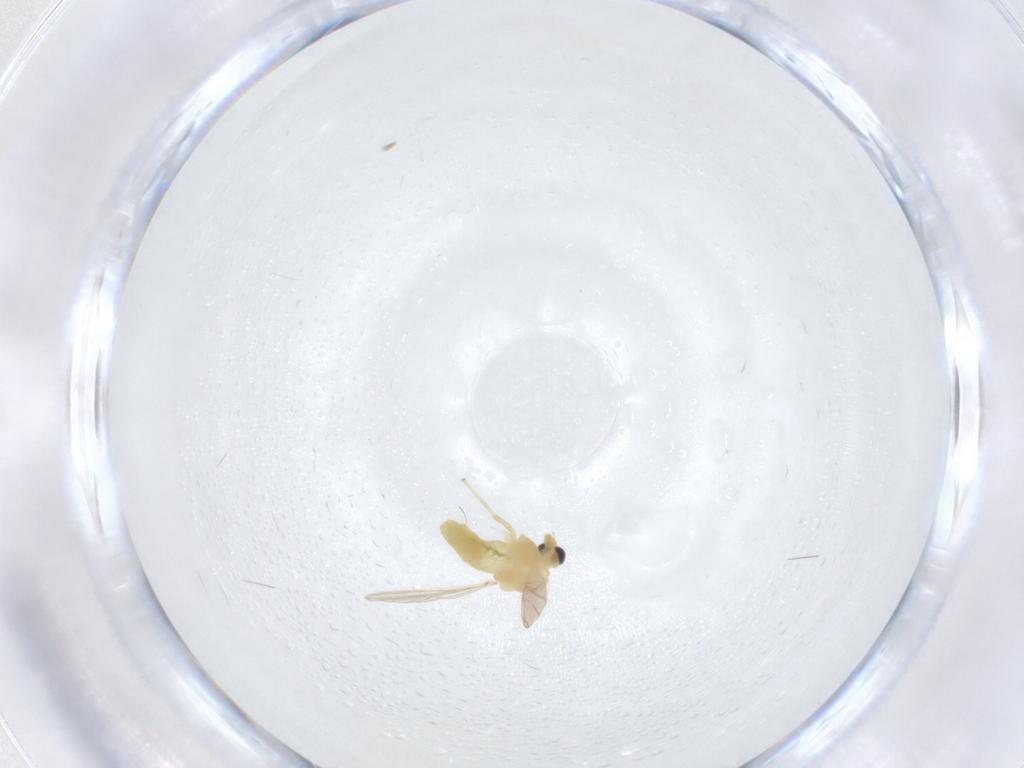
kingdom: Animalia
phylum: Arthropoda
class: Insecta
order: Diptera
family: Chironomidae
